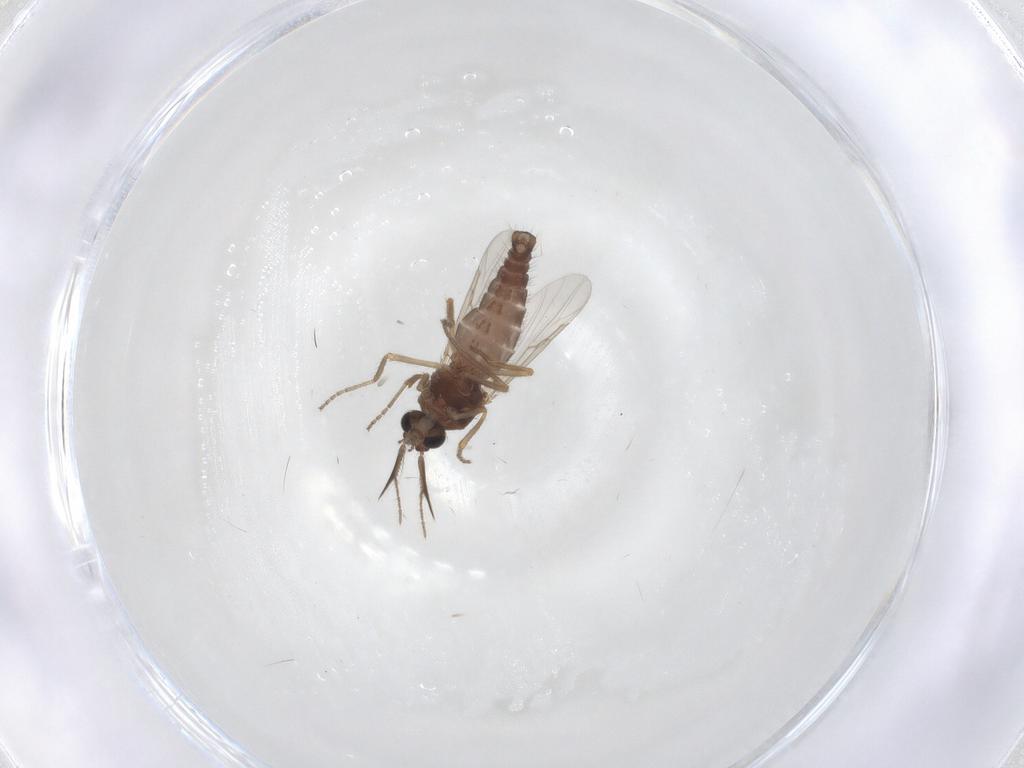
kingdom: Animalia
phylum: Arthropoda
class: Insecta
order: Diptera
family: Ceratopogonidae
